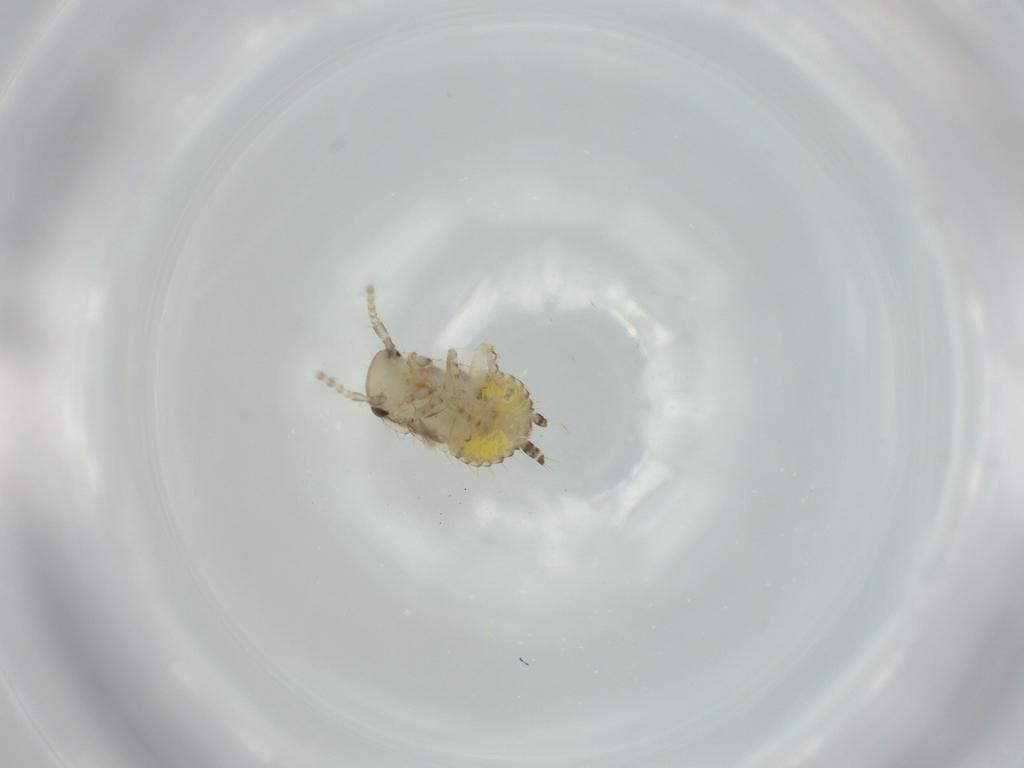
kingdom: Animalia
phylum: Arthropoda
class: Insecta
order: Blattodea
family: Ectobiidae
